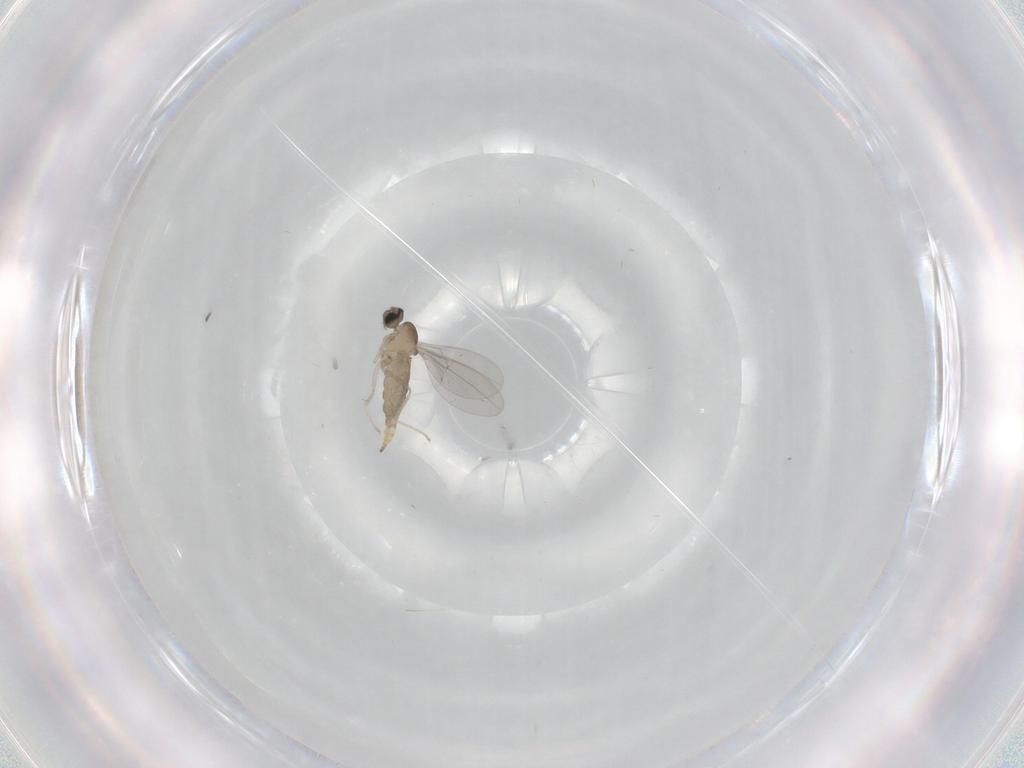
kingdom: Animalia
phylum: Arthropoda
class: Insecta
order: Diptera
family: Cecidomyiidae
